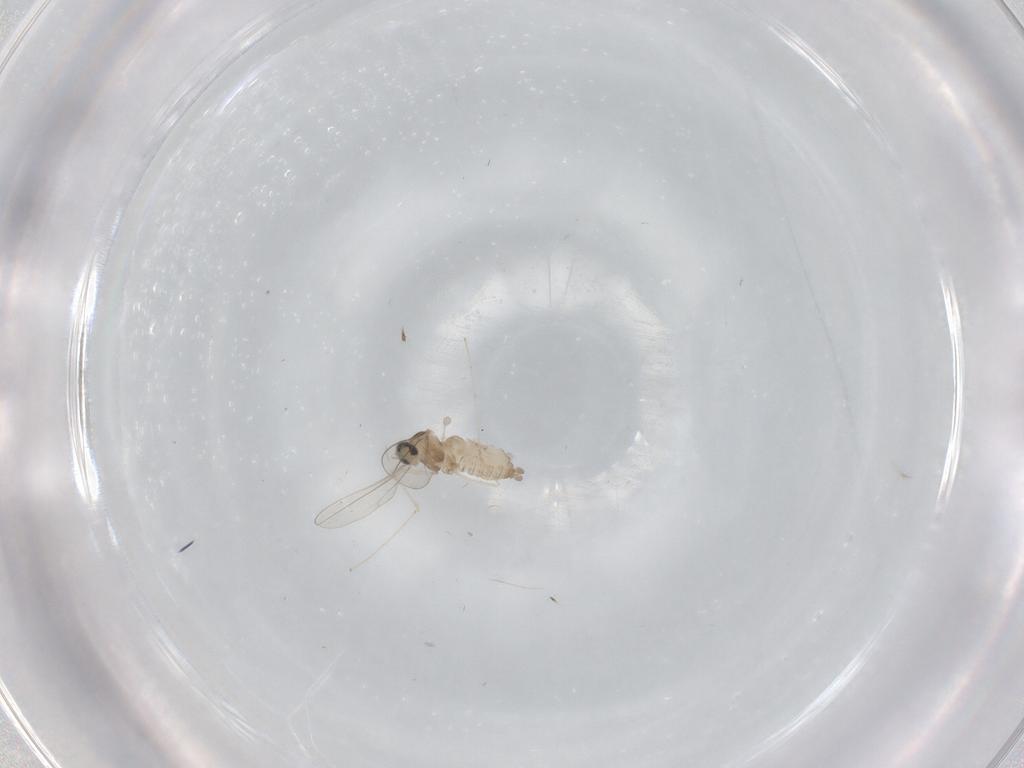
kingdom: Animalia
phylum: Arthropoda
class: Insecta
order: Diptera
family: Cecidomyiidae
